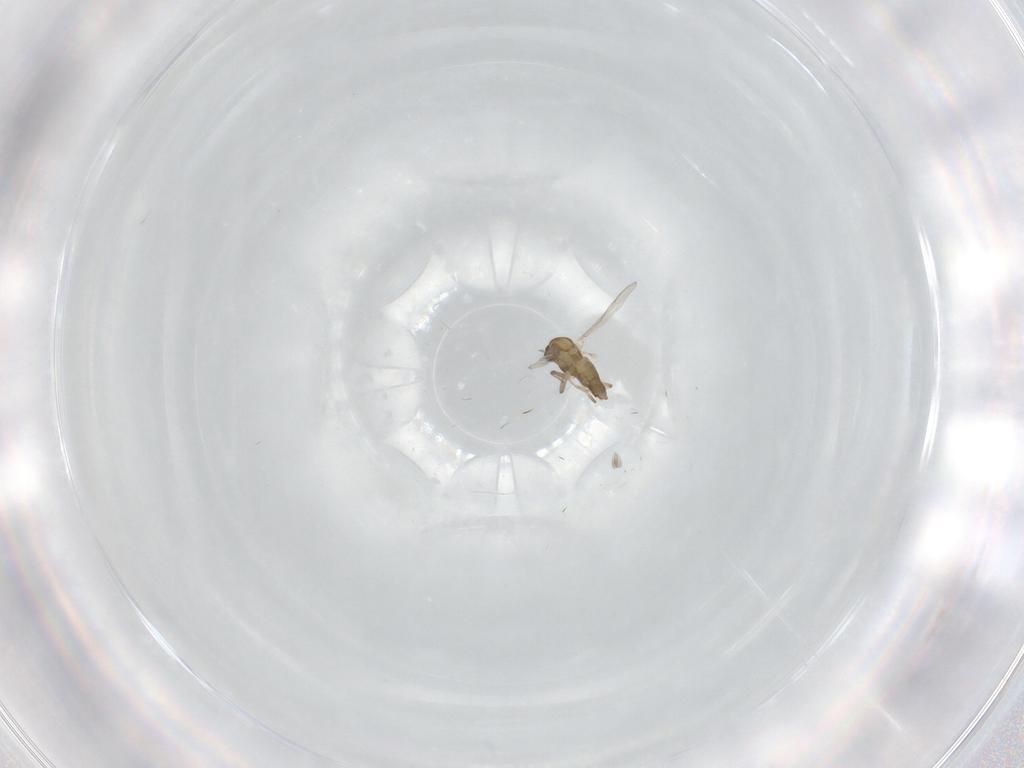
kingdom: Animalia
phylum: Arthropoda
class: Insecta
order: Diptera
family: Chironomidae
